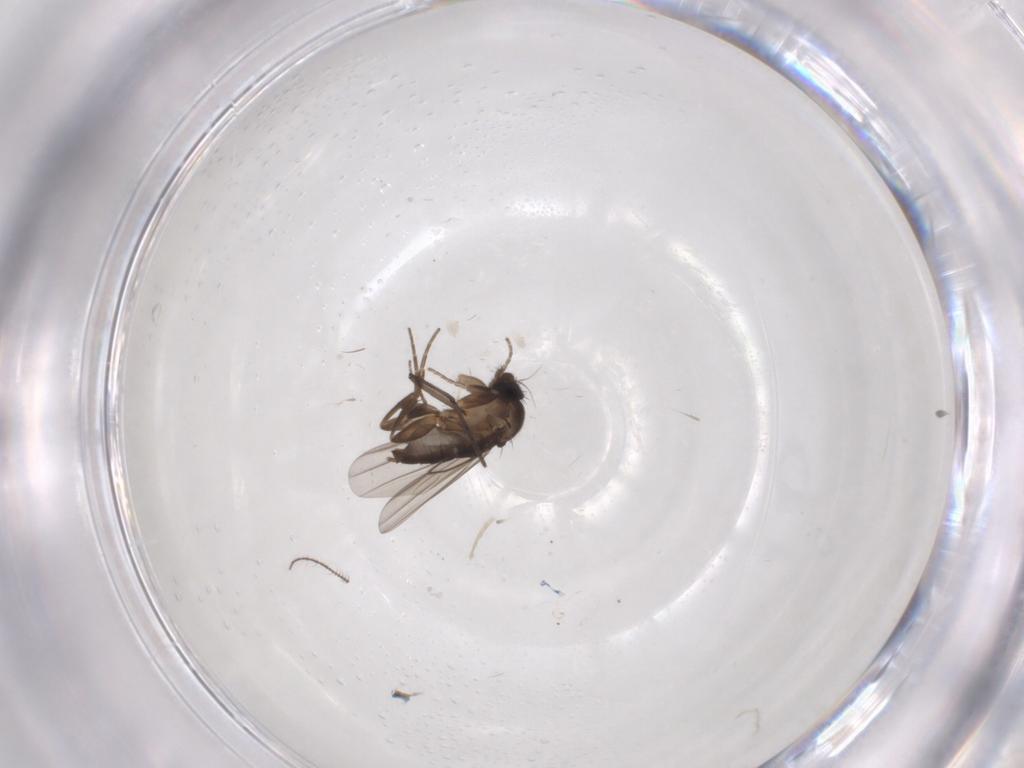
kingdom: Animalia
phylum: Arthropoda
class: Insecta
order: Diptera
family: Ceratopogonidae
